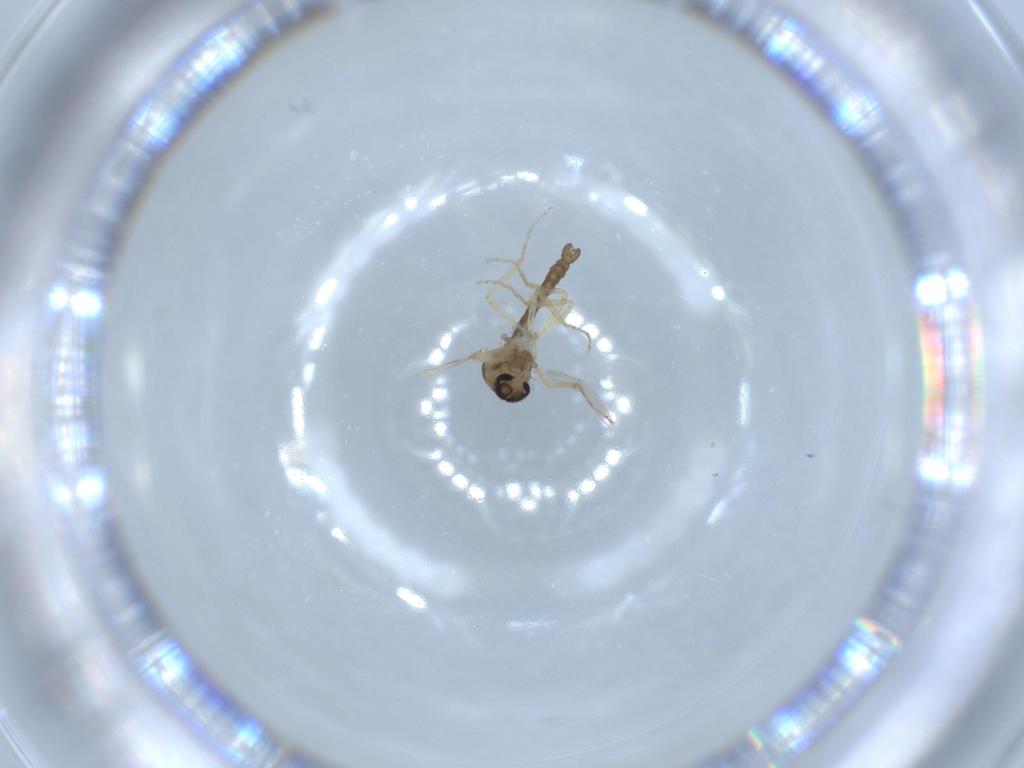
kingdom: Animalia
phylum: Arthropoda
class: Insecta
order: Diptera
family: Ceratopogonidae
